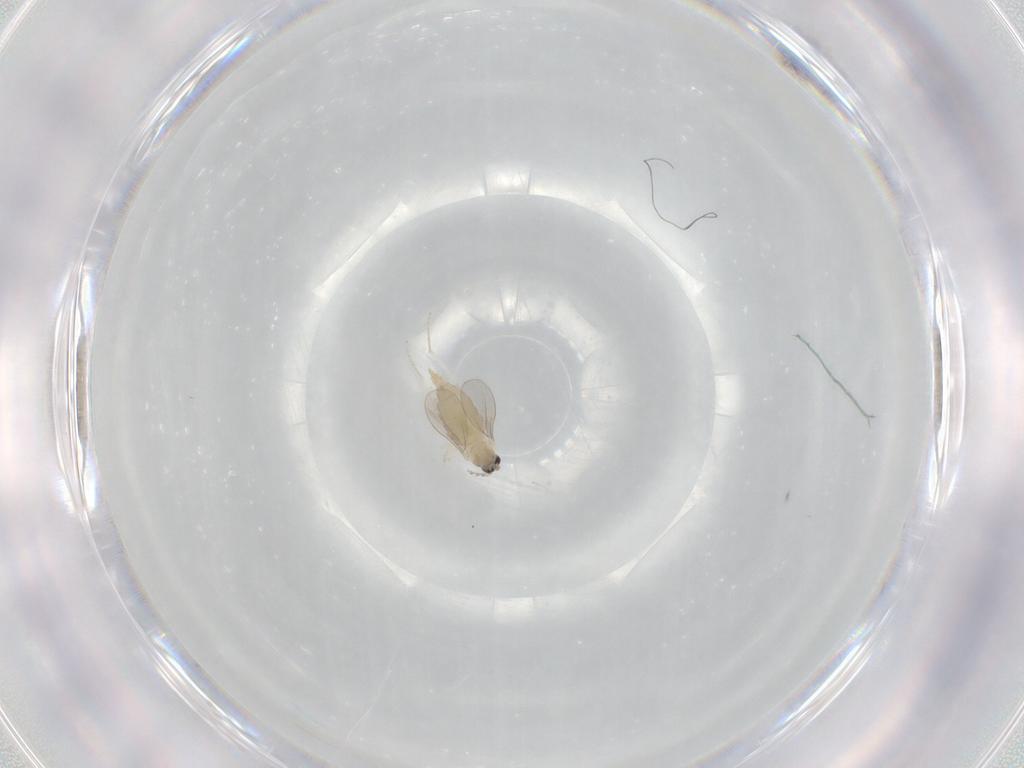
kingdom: Animalia
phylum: Arthropoda
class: Insecta
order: Diptera
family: Cecidomyiidae
